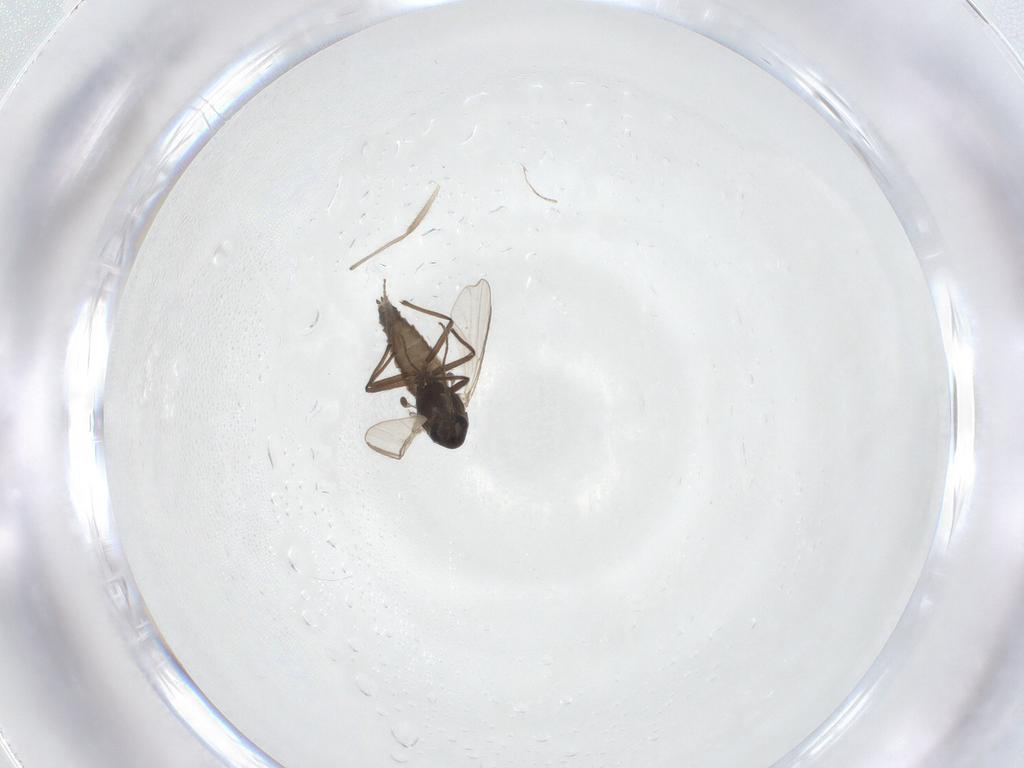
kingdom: Animalia
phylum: Arthropoda
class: Insecta
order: Diptera
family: Chironomidae
